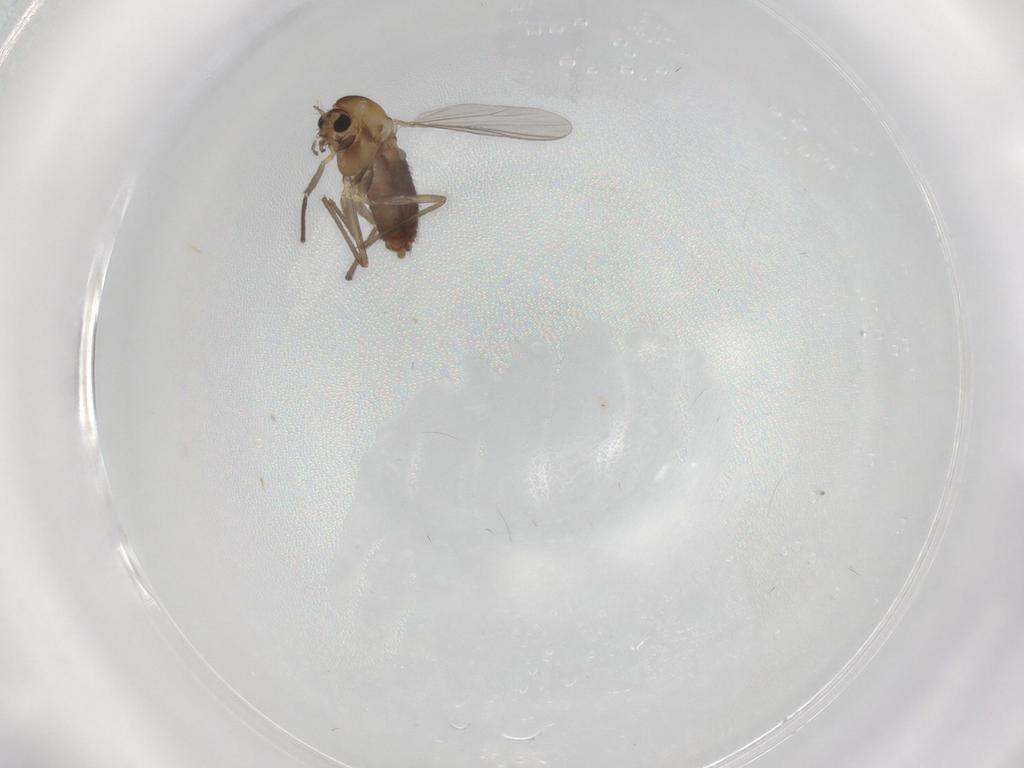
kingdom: Animalia
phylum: Arthropoda
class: Insecta
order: Diptera
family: Chironomidae
